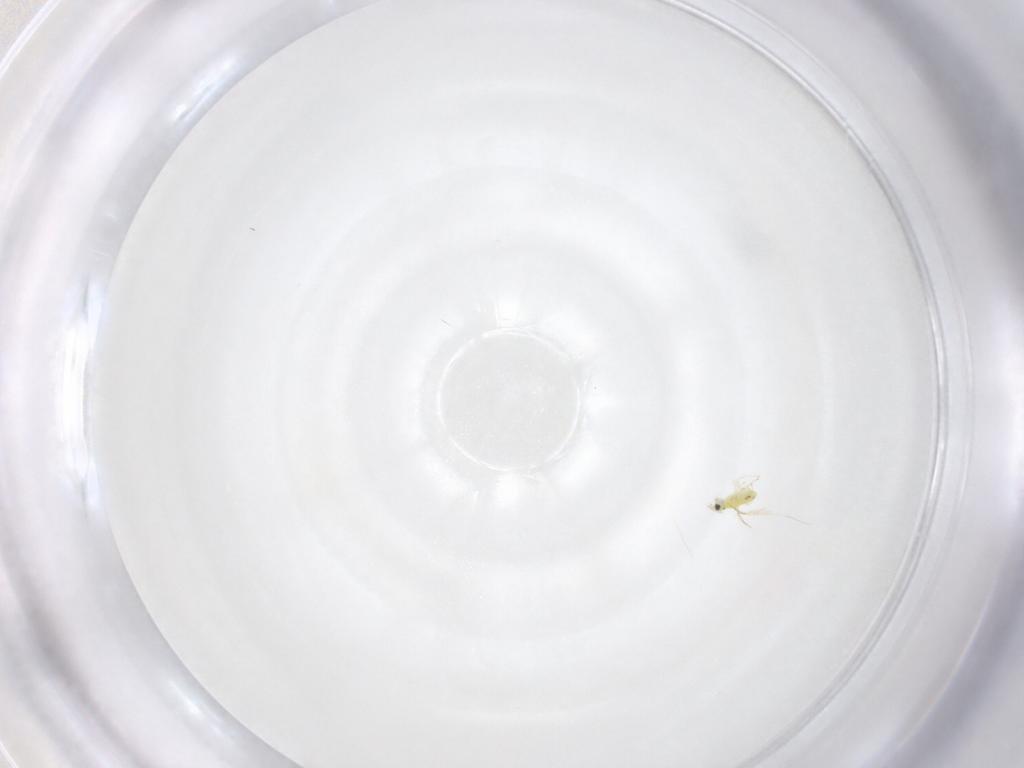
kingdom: Animalia
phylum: Arthropoda
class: Insecta
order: Hymenoptera
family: Trichogrammatidae
